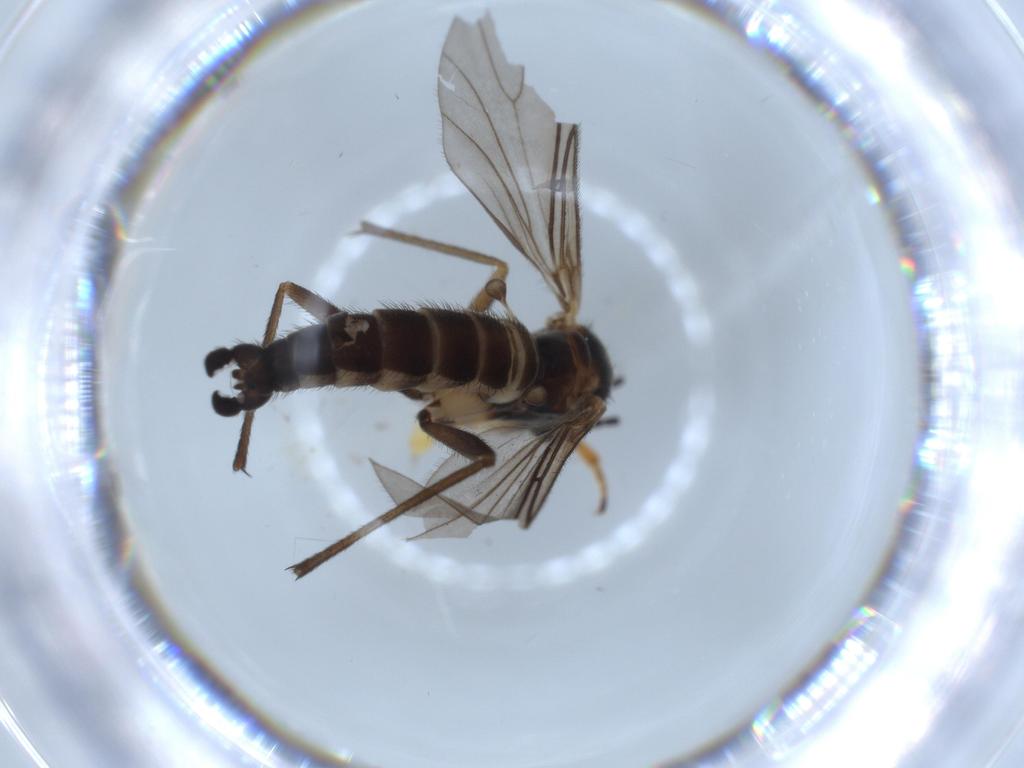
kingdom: Animalia
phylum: Arthropoda
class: Insecta
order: Diptera
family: Sciaridae
